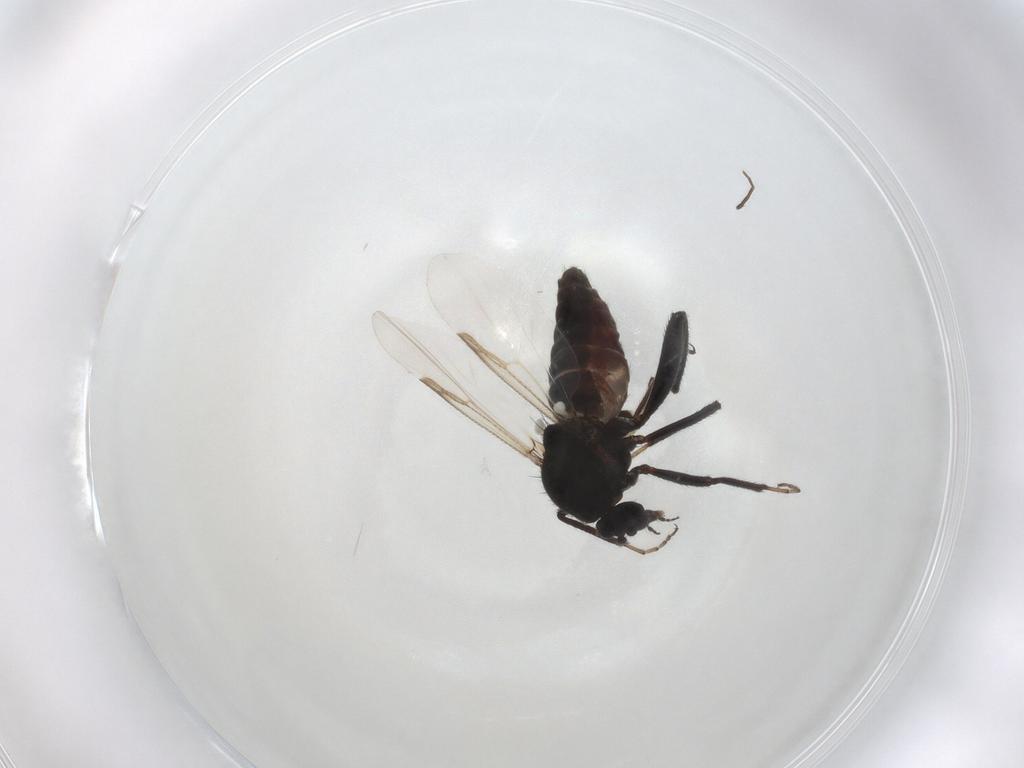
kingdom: Animalia
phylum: Arthropoda
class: Insecta
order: Diptera
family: Ceratopogonidae
